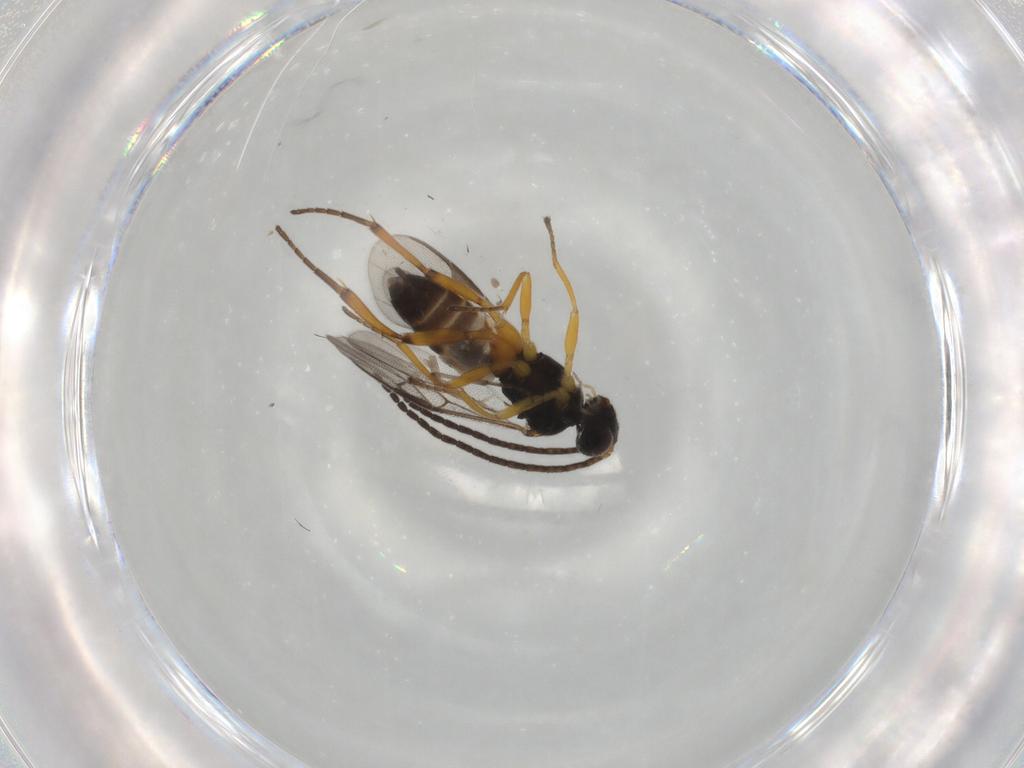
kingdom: Animalia
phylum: Arthropoda
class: Insecta
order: Hymenoptera
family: Braconidae
